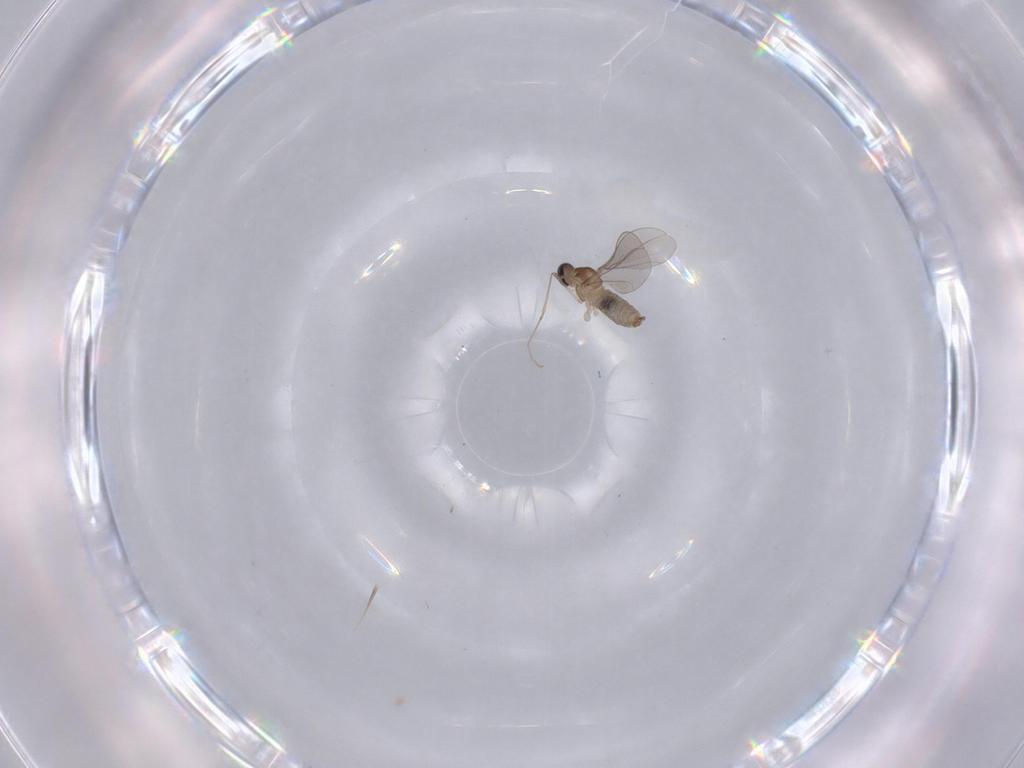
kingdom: Animalia
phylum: Arthropoda
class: Insecta
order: Diptera
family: Cecidomyiidae
